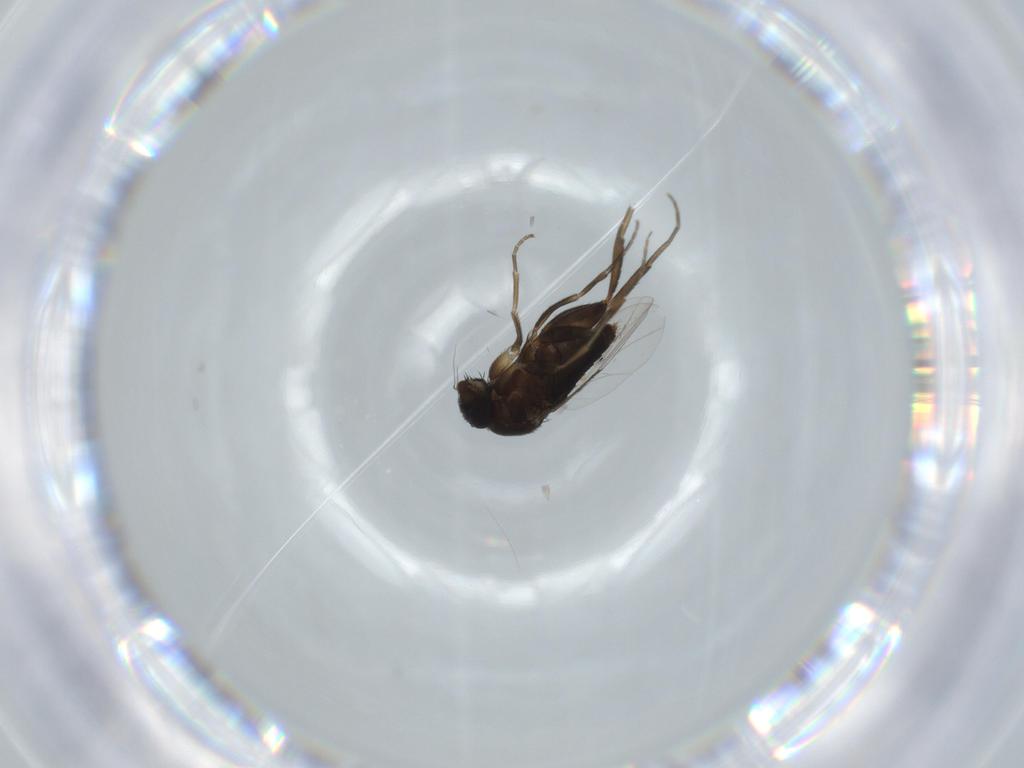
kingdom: Animalia
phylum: Arthropoda
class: Insecta
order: Diptera
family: Phoridae
